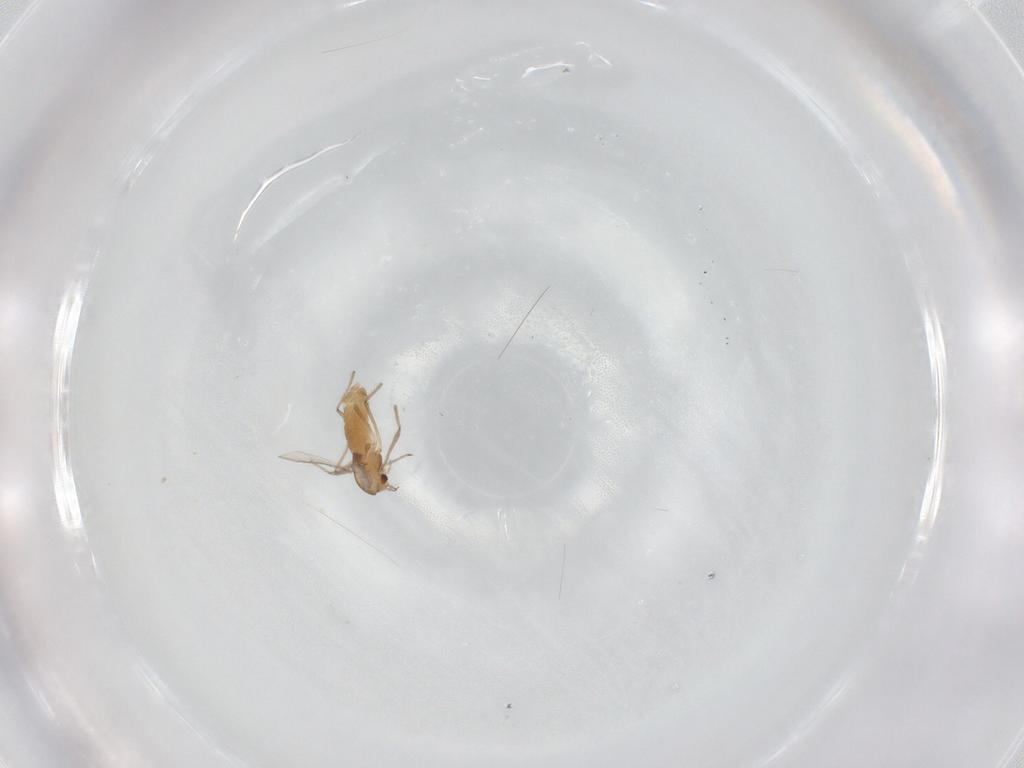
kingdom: Animalia
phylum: Arthropoda
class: Insecta
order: Diptera
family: Chironomidae
